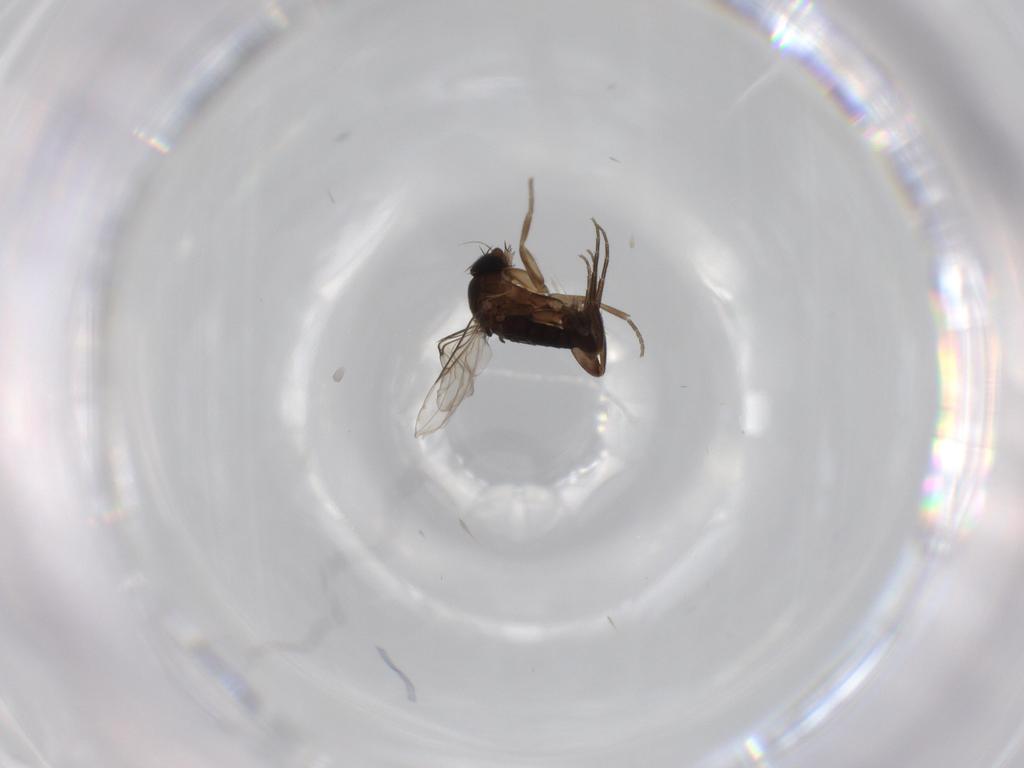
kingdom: Animalia
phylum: Arthropoda
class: Insecta
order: Diptera
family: Phoridae
